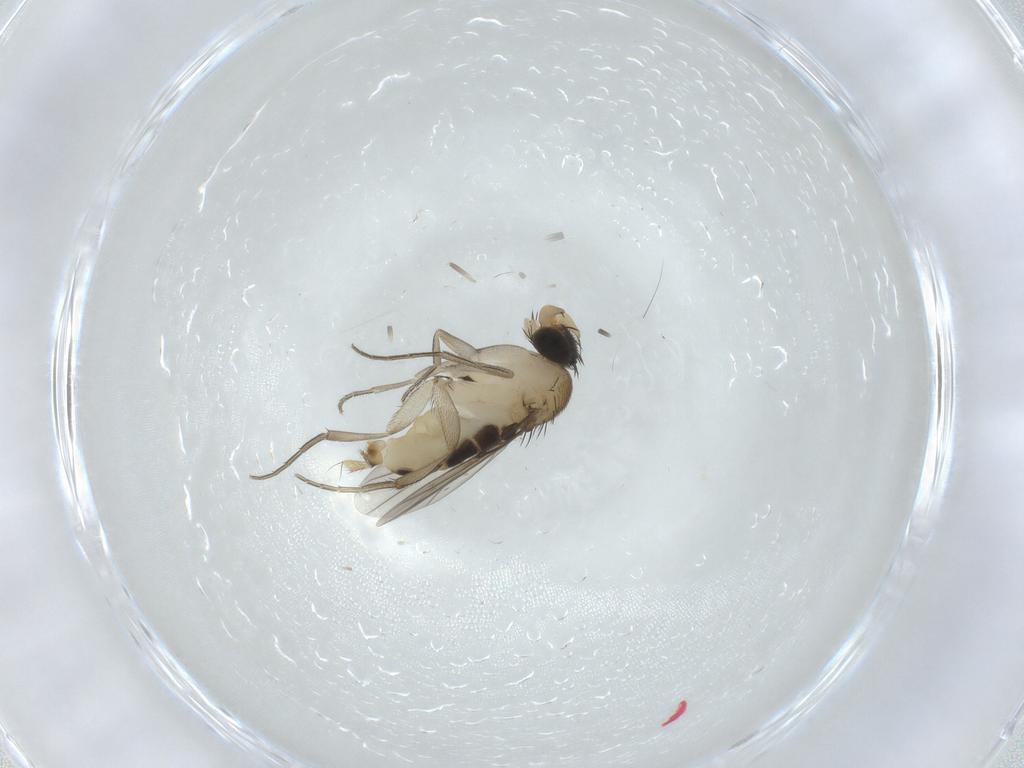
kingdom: Animalia
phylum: Arthropoda
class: Insecta
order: Diptera
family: Phoridae
